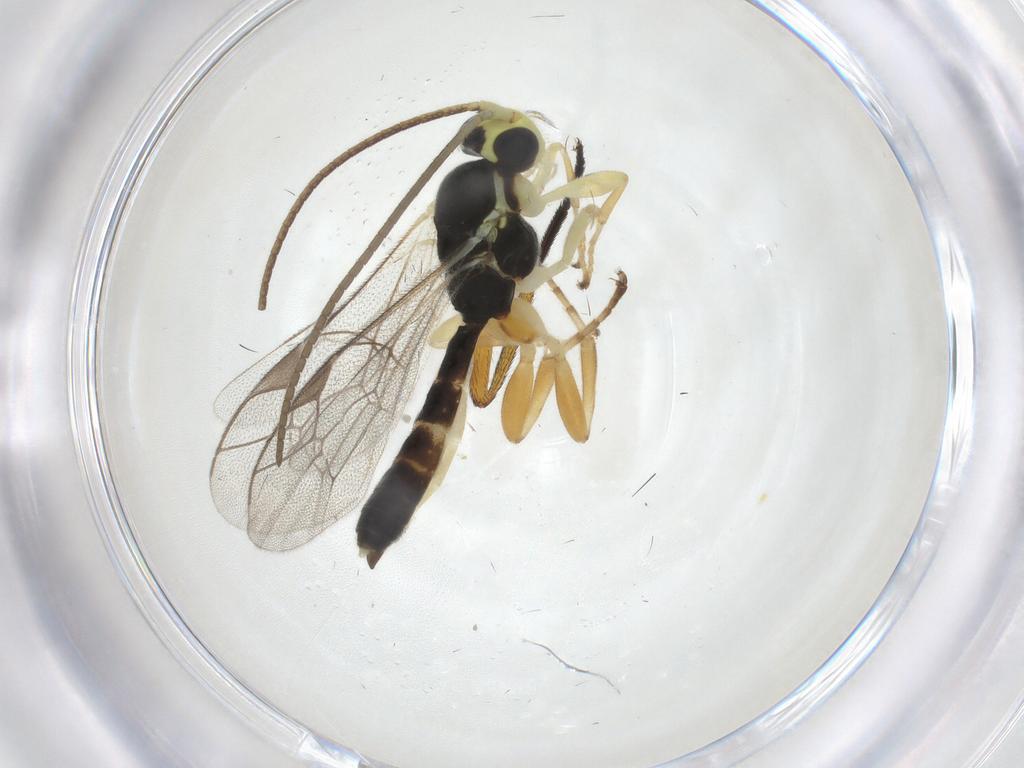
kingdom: Animalia
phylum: Arthropoda
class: Insecta
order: Hymenoptera
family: Ichneumonidae
